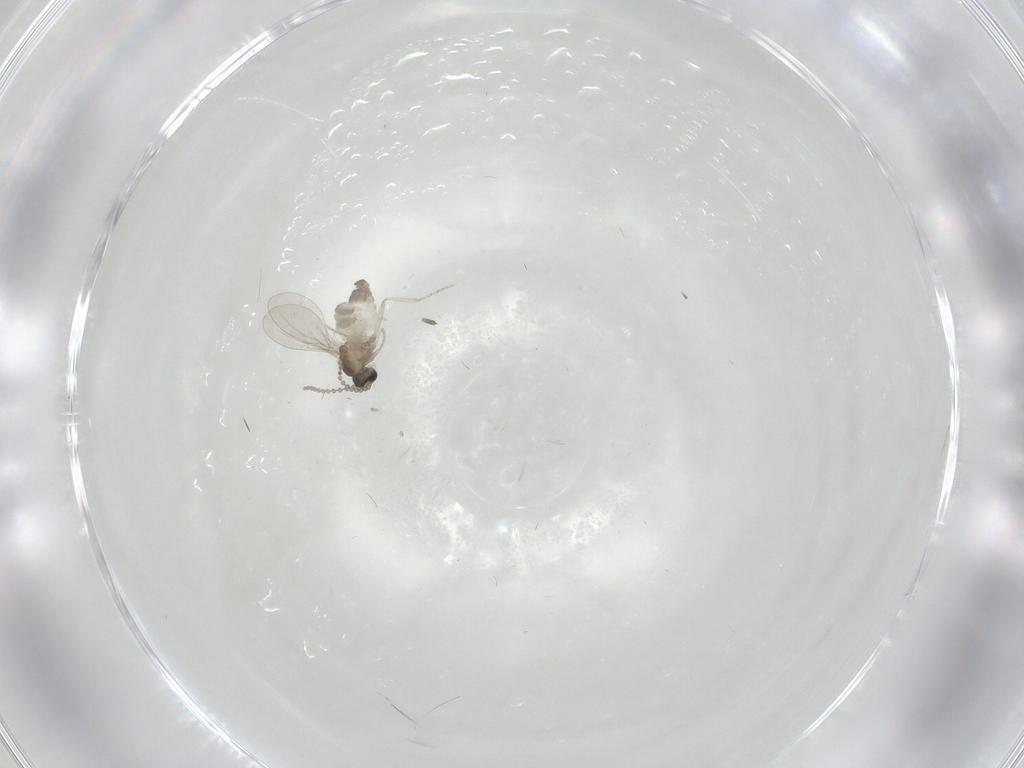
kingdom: Animalia
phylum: Arthropoda
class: Insecta
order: Diptera
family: Cecidomyiidae
